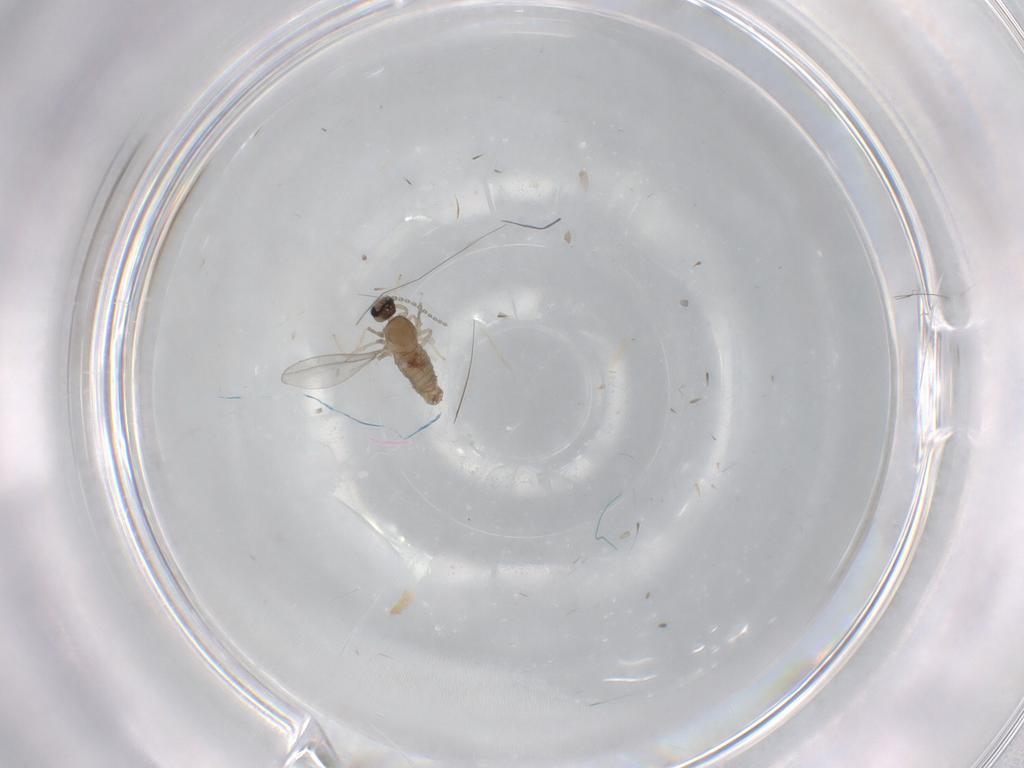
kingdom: Animalia
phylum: Arthropoda
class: Insecta
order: Diptera
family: Cecidomyiidae
